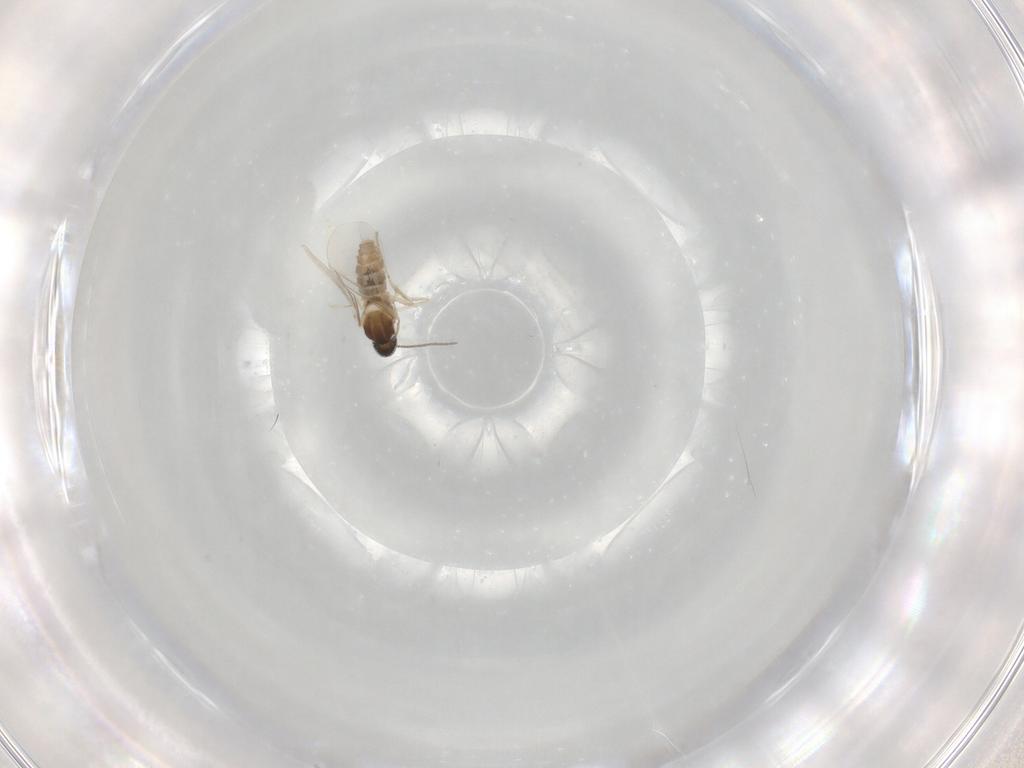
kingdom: Animalia
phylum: Arthropoda
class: Insecta
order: Diptera
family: Cecidomyiidae
